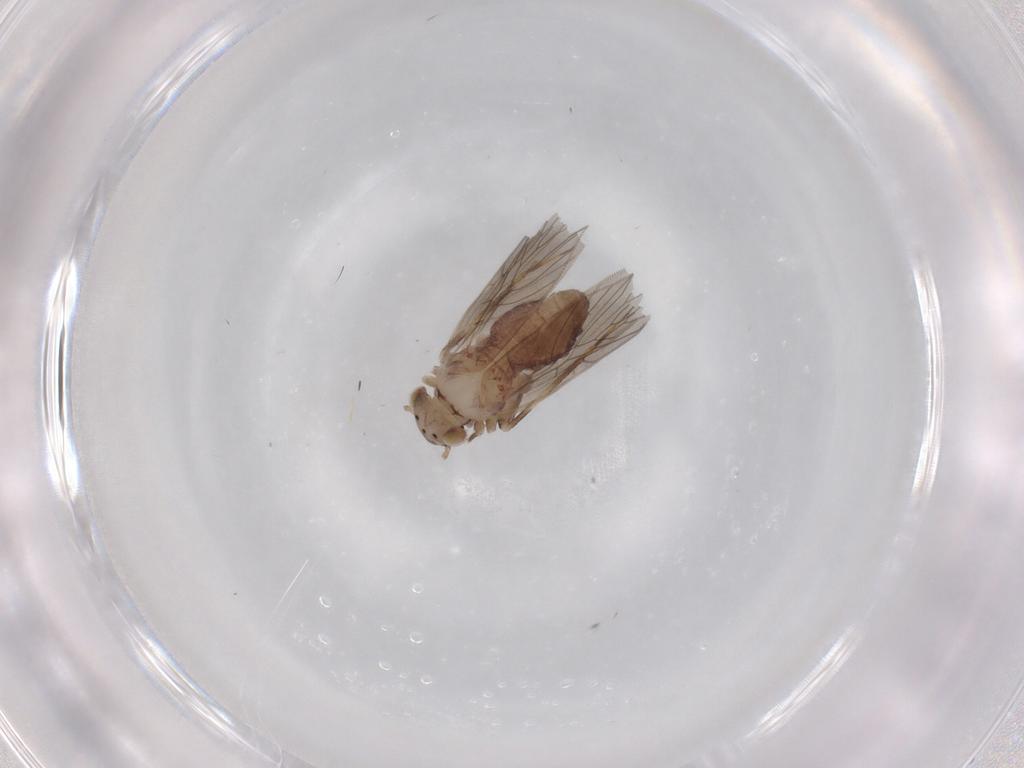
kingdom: Animalia
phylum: Arthropoda
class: Insecta
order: Psocodea
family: Lepidopsocidae
